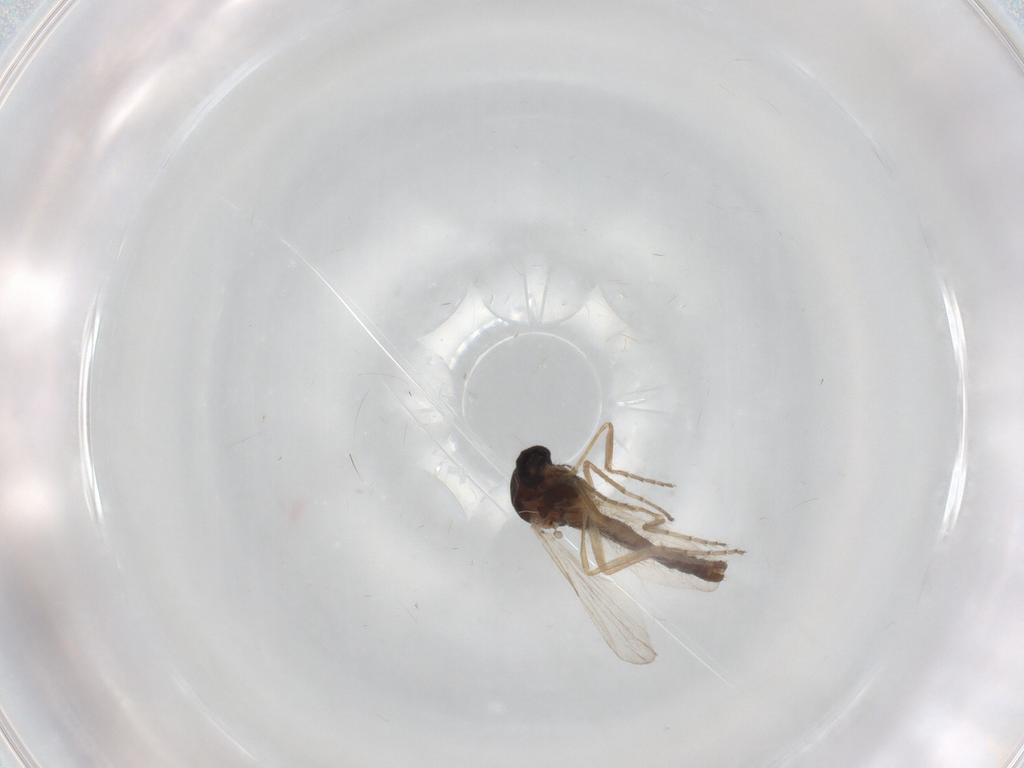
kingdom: Animalia
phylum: Arthropoda
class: Insecta
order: Diptera
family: Ceratopogonidae
